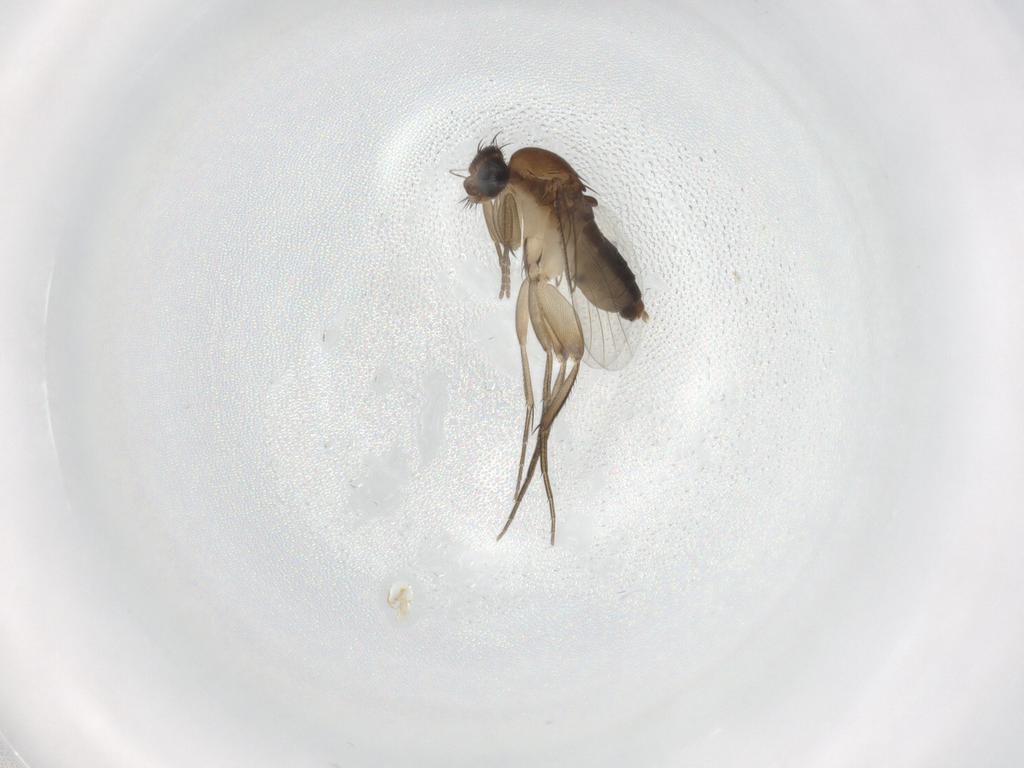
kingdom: Animalia
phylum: Arthropoda
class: Insecta
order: Diptera
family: Phoridae
